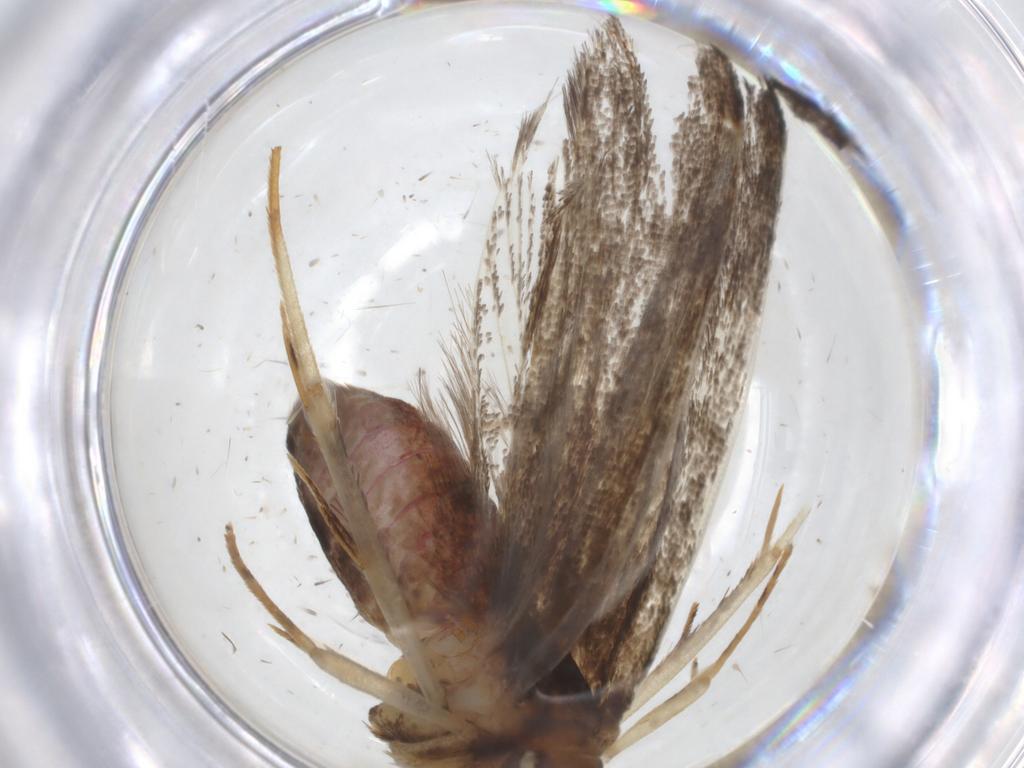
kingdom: Animalia
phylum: Arthropoda
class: Insecta
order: Lepidoptera
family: Lecithoceridae
